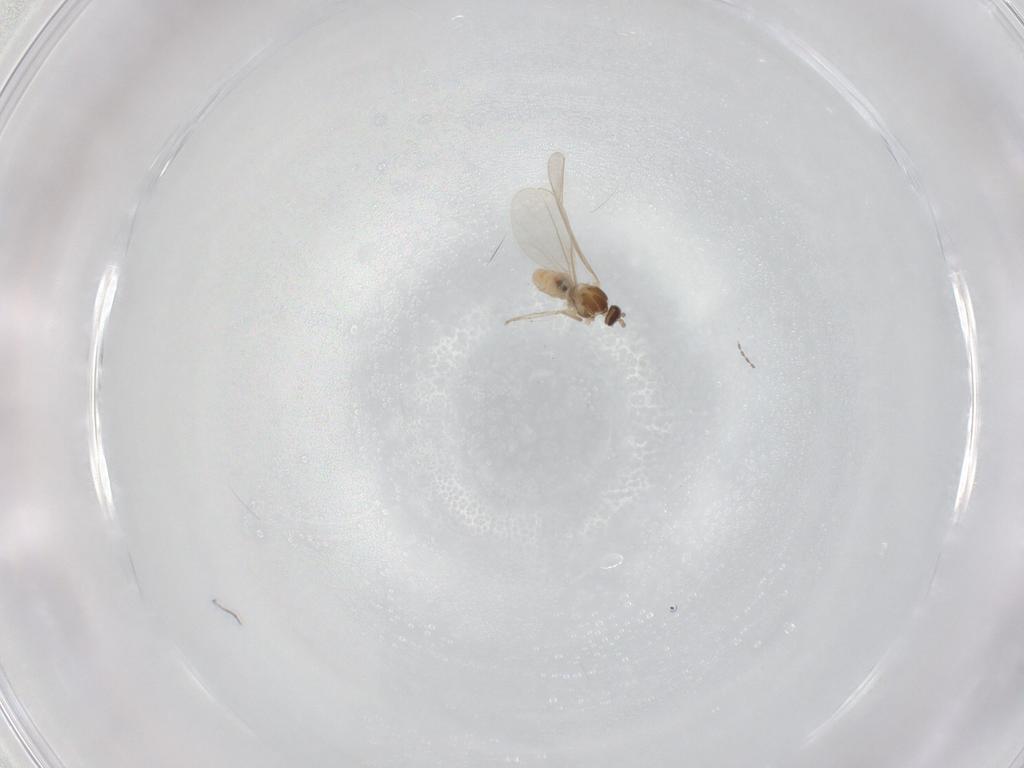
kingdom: Animalia
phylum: Arthropoda
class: Insecta
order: Diptera
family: Cecidomyiidae
